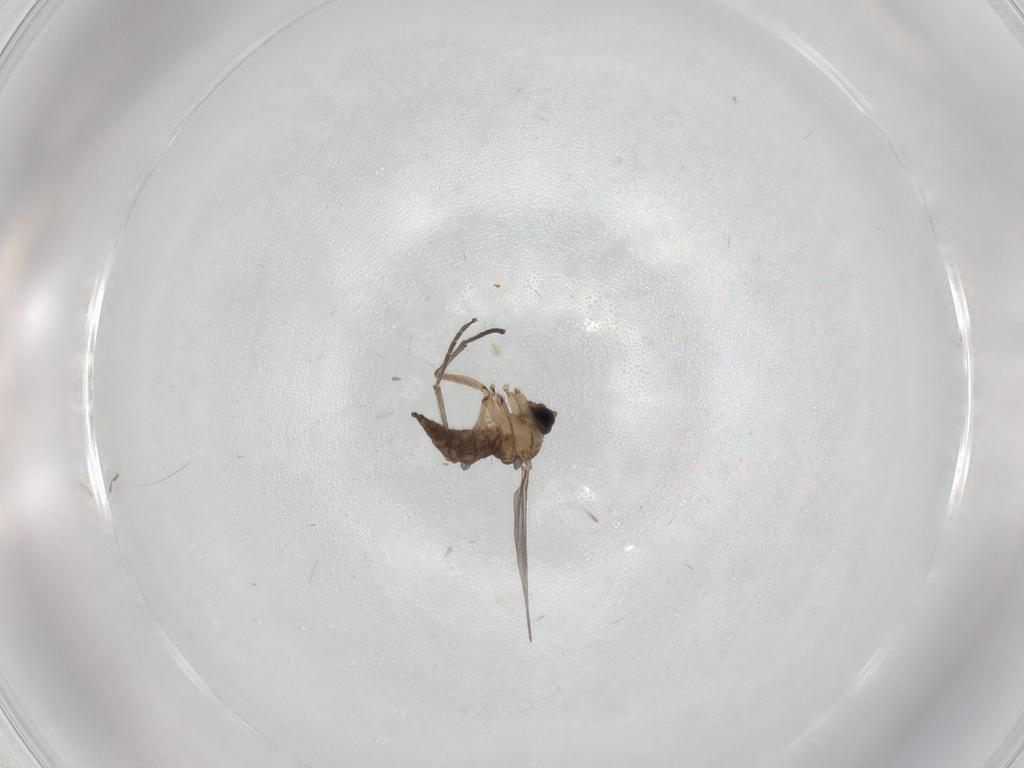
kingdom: Animalia
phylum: Arthropoda
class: Insecta
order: Diptera
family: Sciaridae
